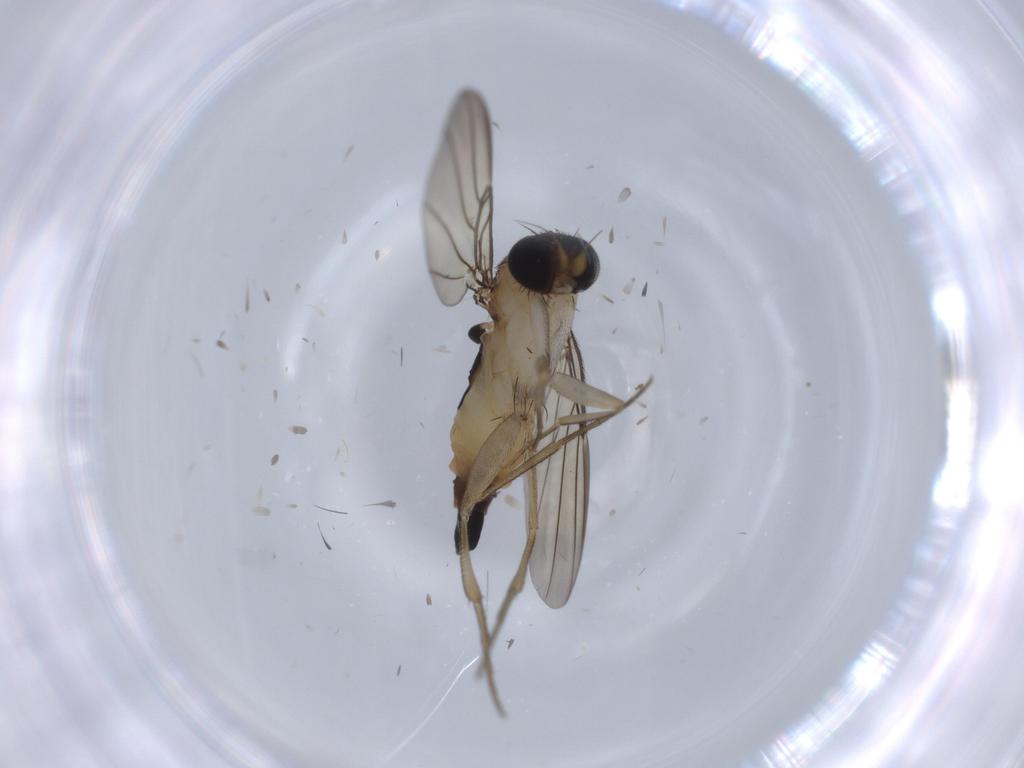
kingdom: Animalia
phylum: Arthropoda
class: Insecta
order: Diptera
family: Phoridae
